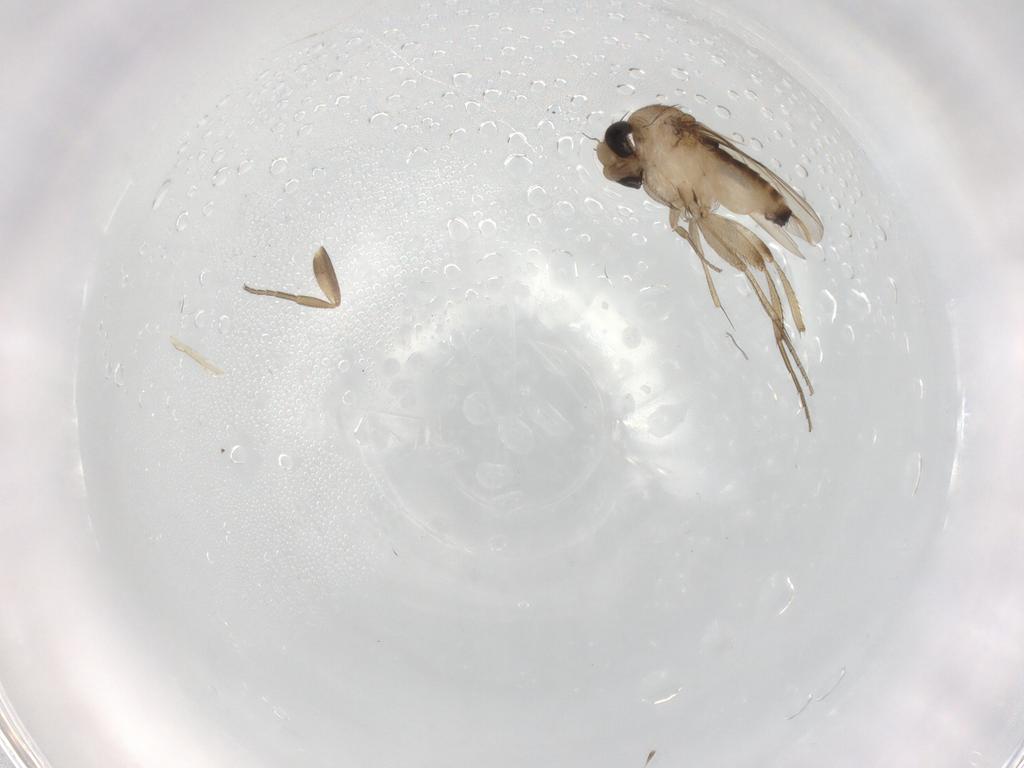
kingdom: Animalia
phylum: Arthropoda
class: Insecta
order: Diptera
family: Phoridae
